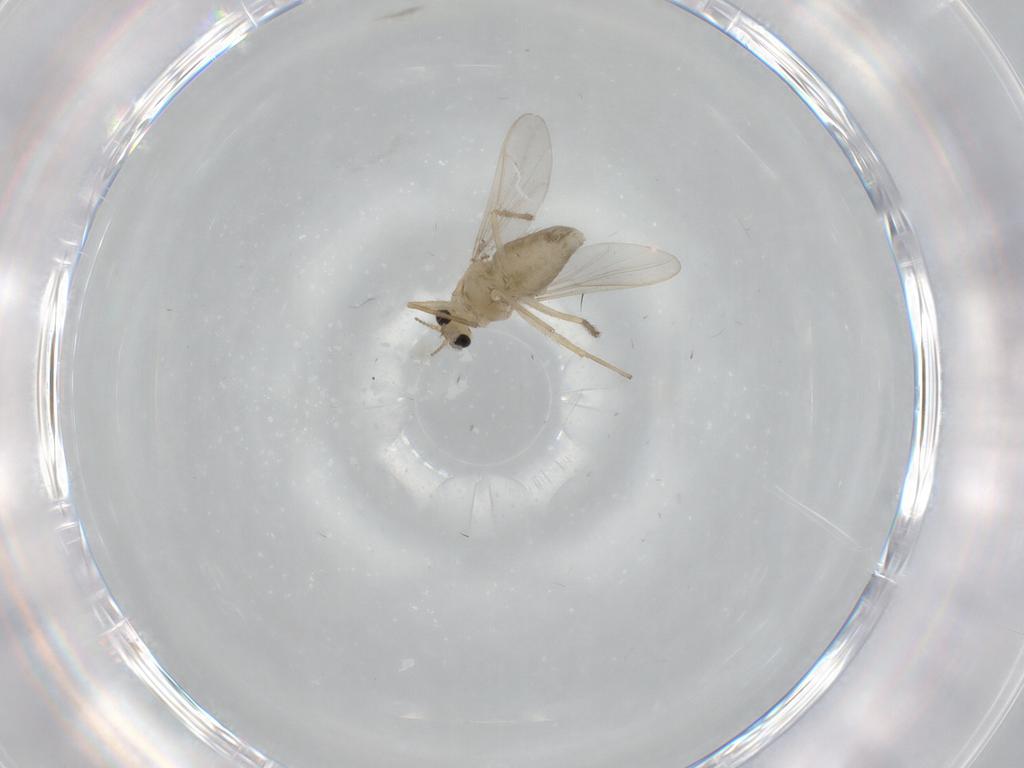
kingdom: Animalia
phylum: Arthropoda
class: Insecta
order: Diptera
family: Chironomidae
